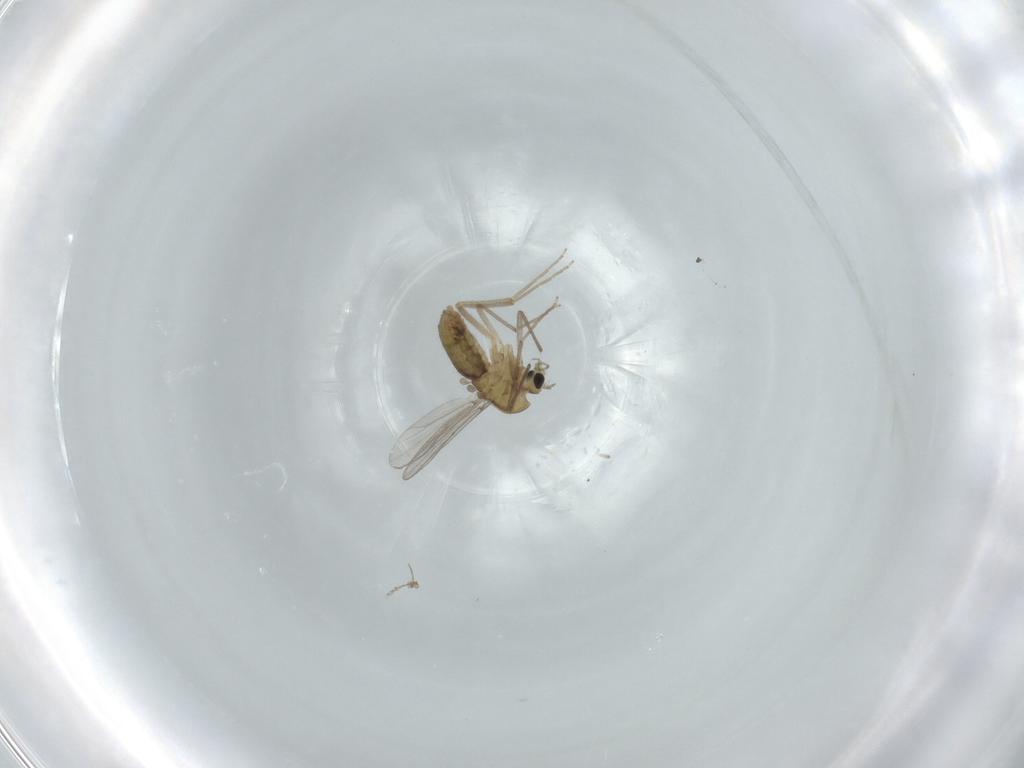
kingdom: Animalia
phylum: Arthropoda
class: Insecta
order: Diptera
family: Chironomidae
